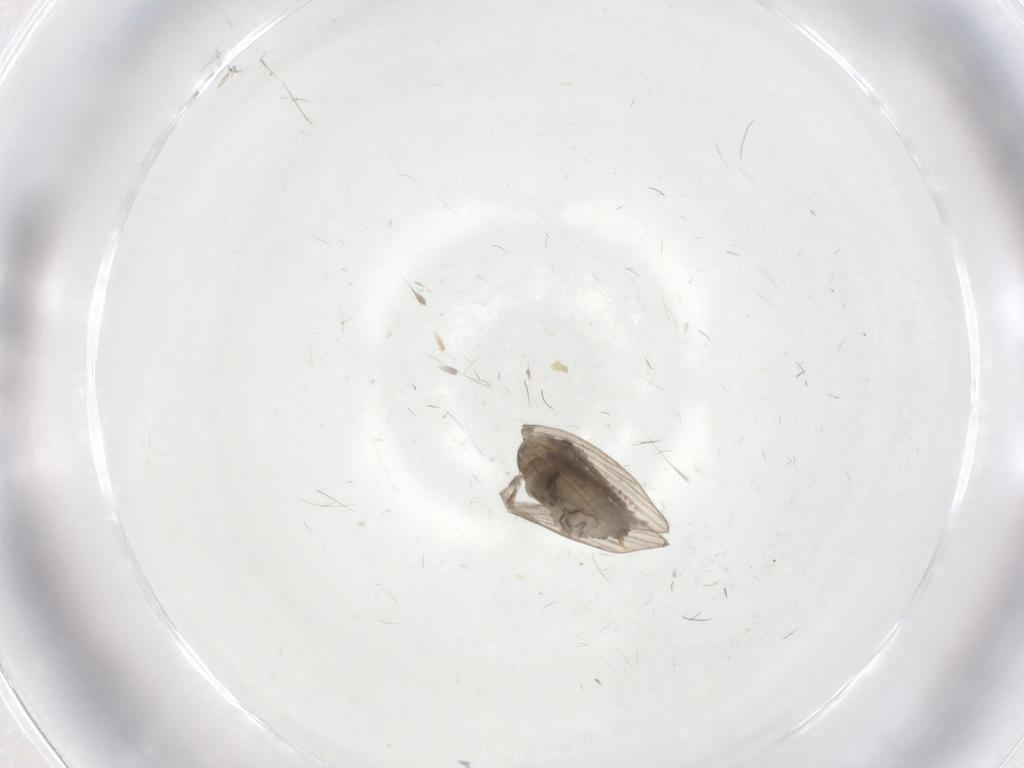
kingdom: Animalia
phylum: Arthropoda
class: Insecta
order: Diptera
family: Psychodidae
